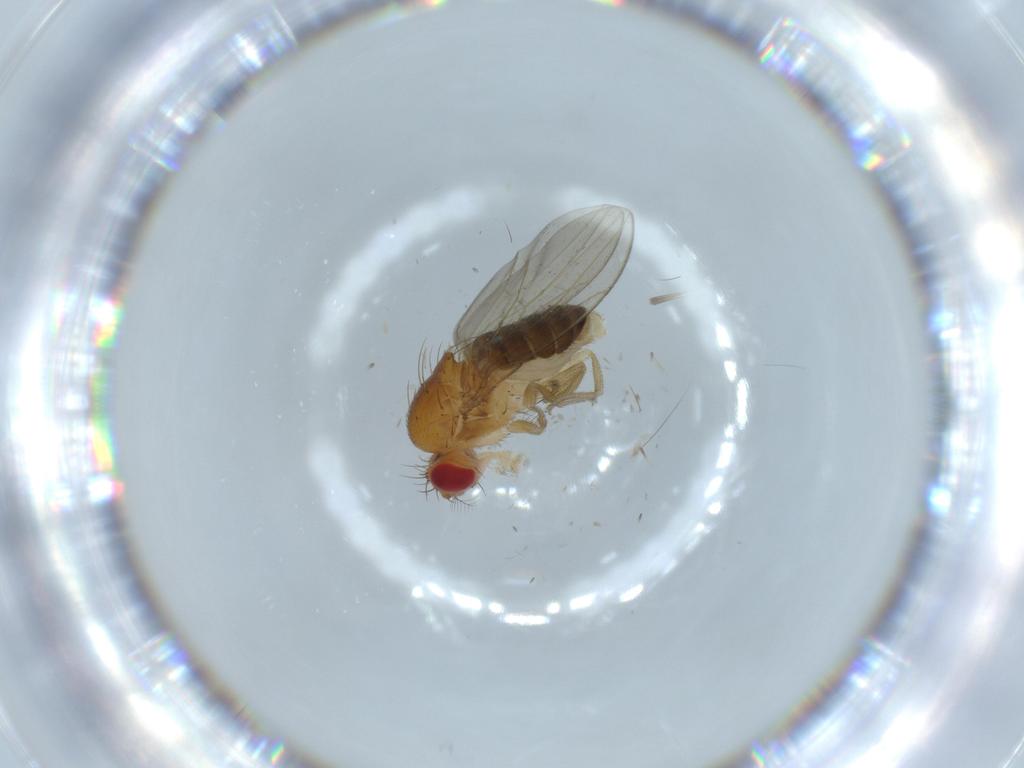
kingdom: Animalia
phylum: Arthropoda
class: Insecta
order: Diptera
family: Drosophilidae
